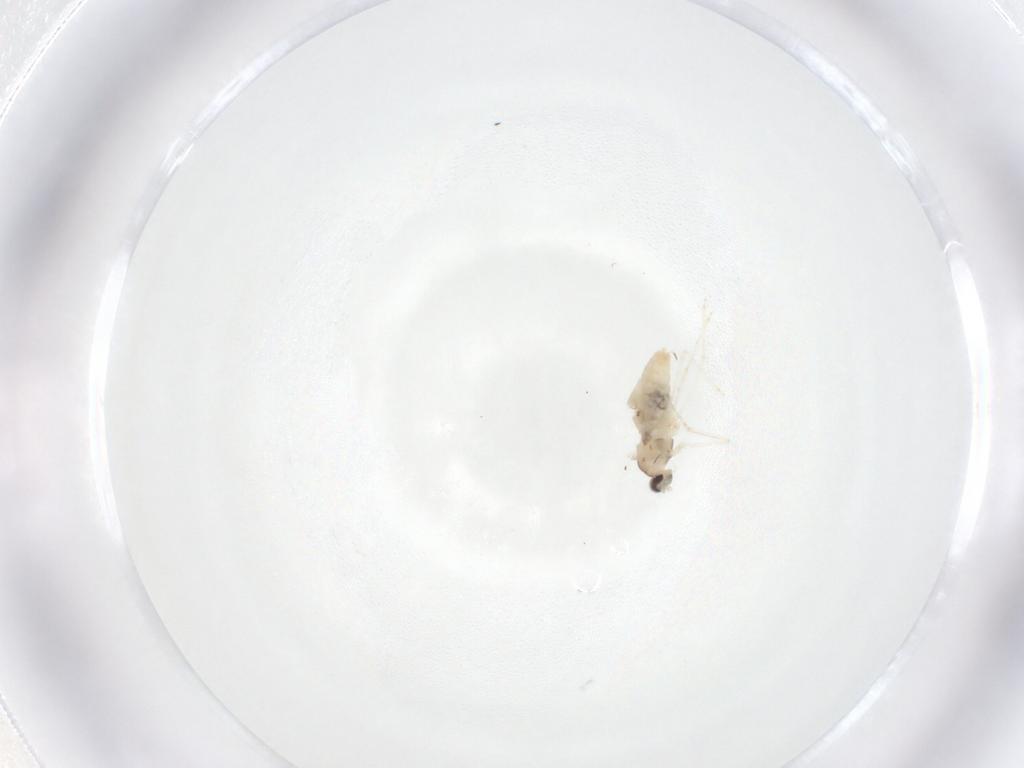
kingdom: Animalia
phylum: Arthropoda
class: Insecta
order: Diptera
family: Cecidomyiidae
